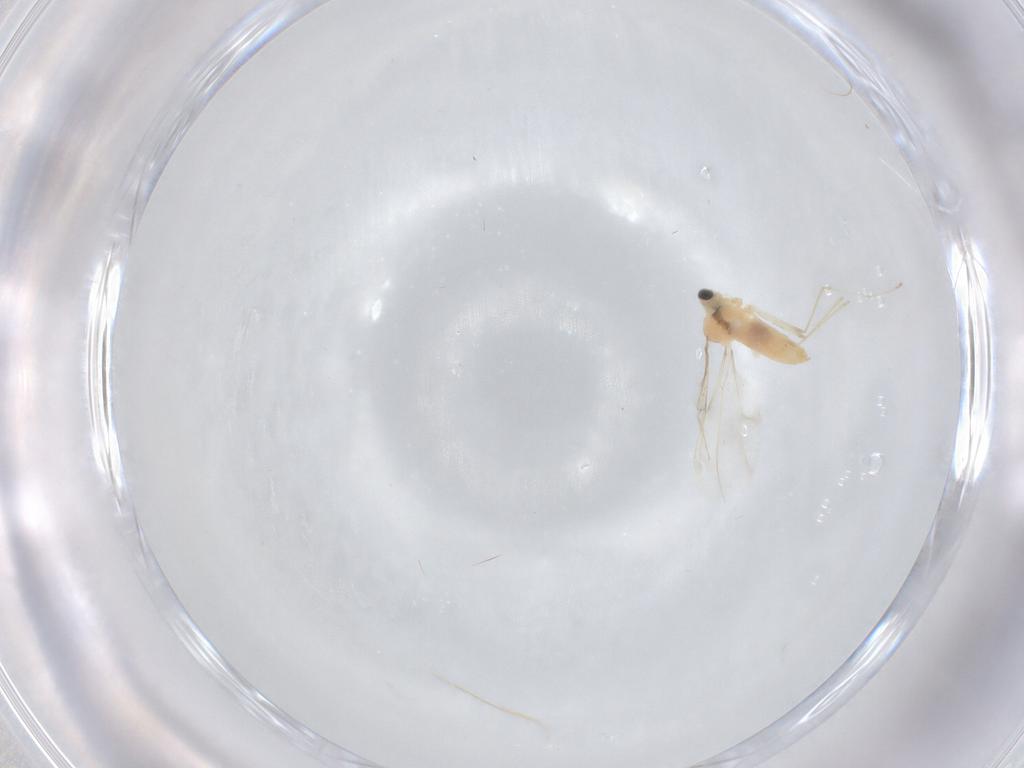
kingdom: Animalia
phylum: Arthropoda
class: Insecta
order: Diptera
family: Cecidomyiidae
